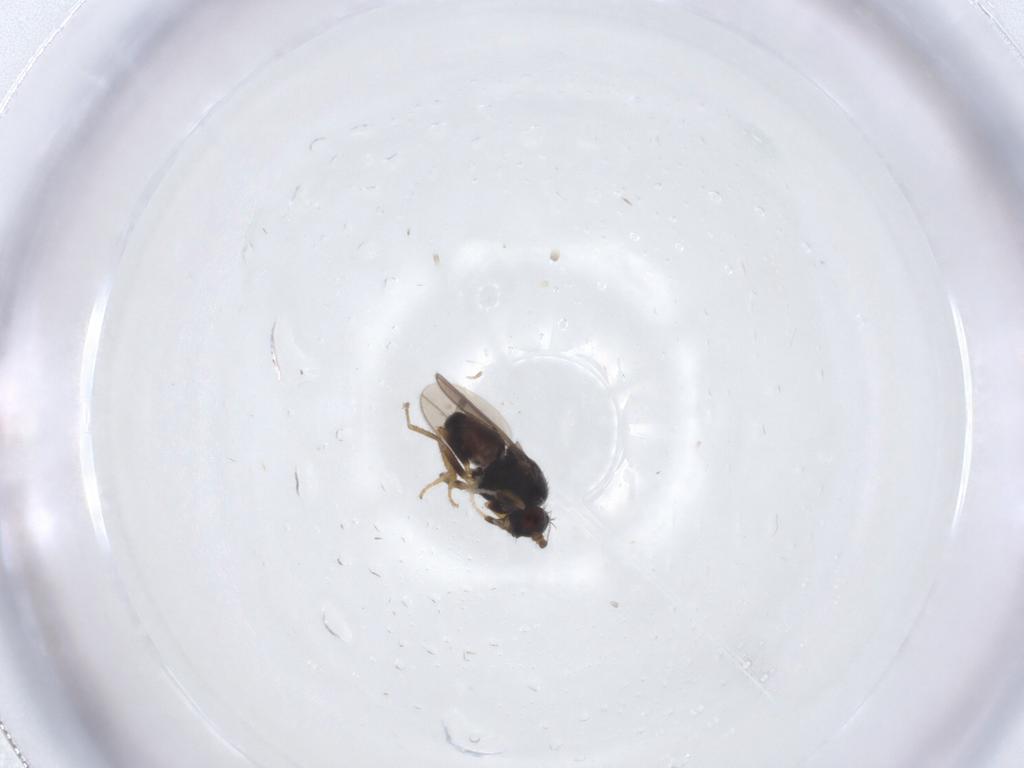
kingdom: Animalia
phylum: Arthropoda
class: Insecta
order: Diptera
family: Sphaeroceridae
